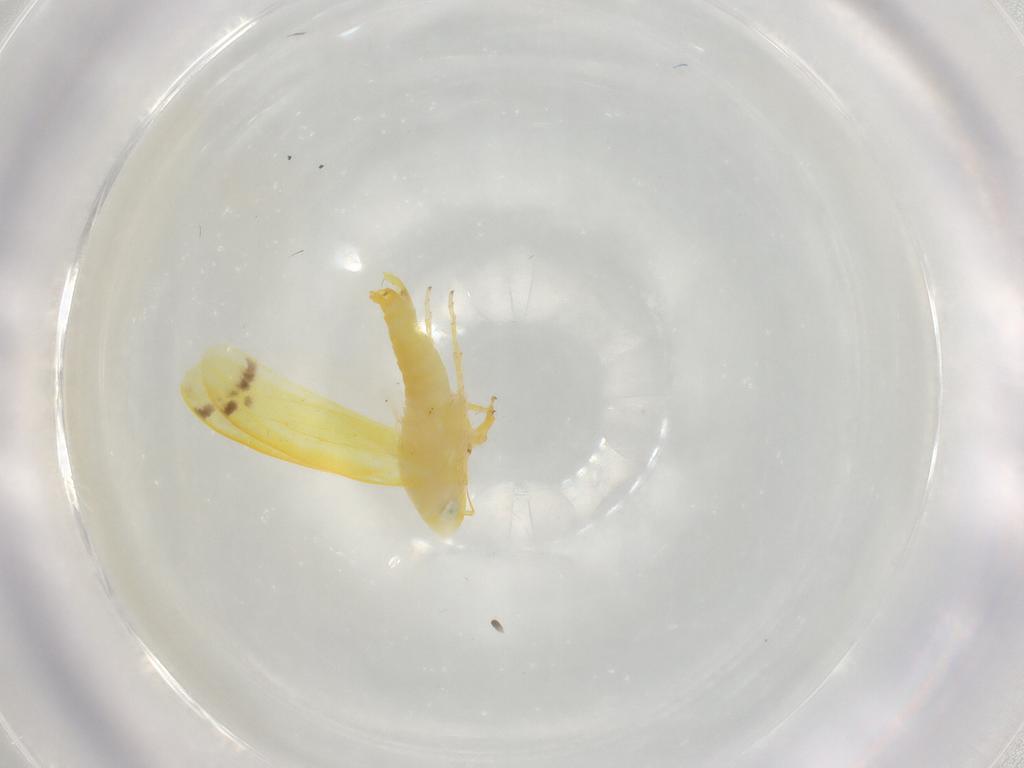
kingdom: Animalia
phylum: Arthropoda
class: Insecta
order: Hemiptera
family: Cicadellidae
